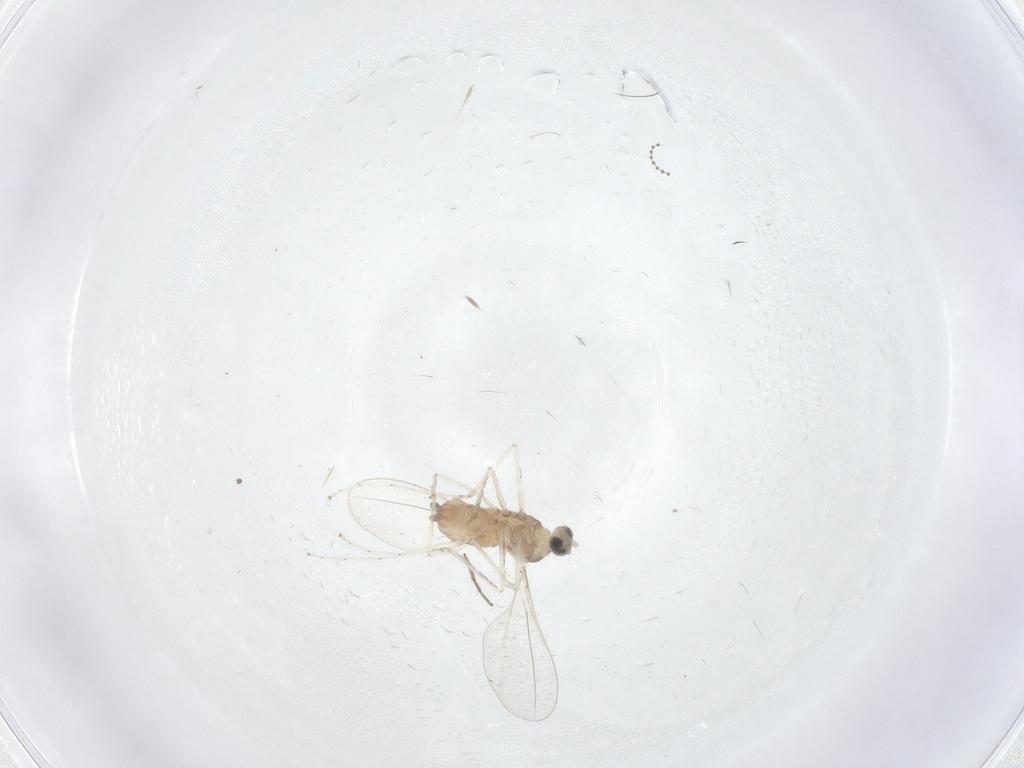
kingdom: Animalia
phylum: Arthropoda
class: Insecta
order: Diptera
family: Cecidomyiidae
